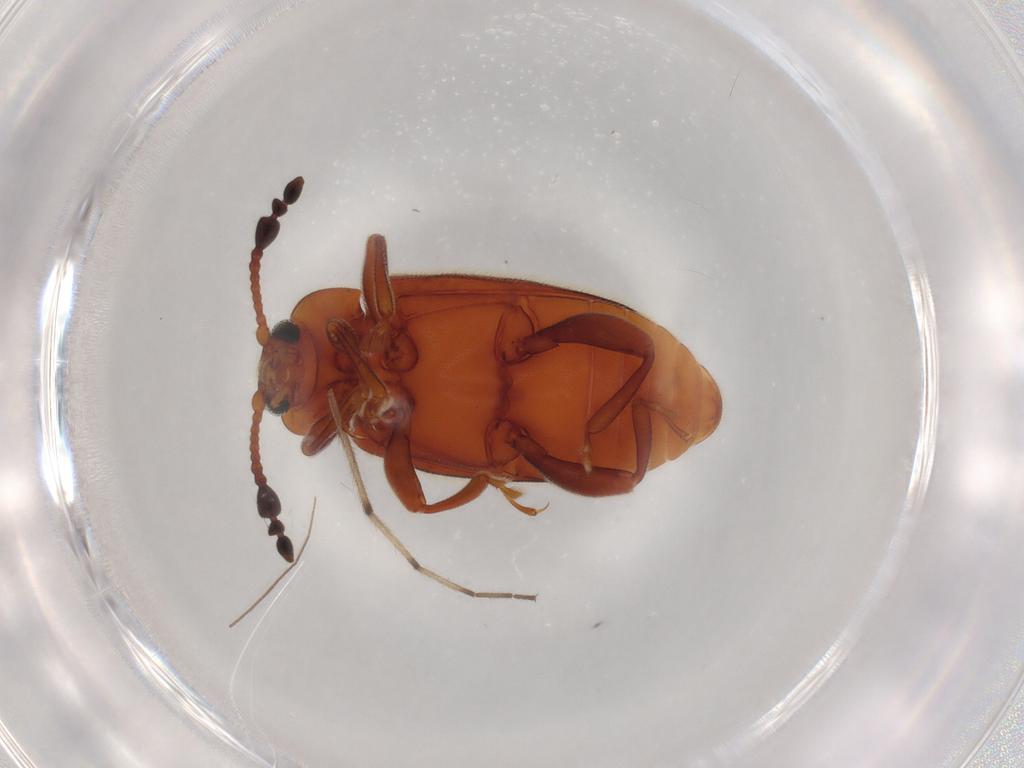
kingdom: Animalia
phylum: Arthropoda
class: Insecta
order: Coleoptera
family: Endomychidae
